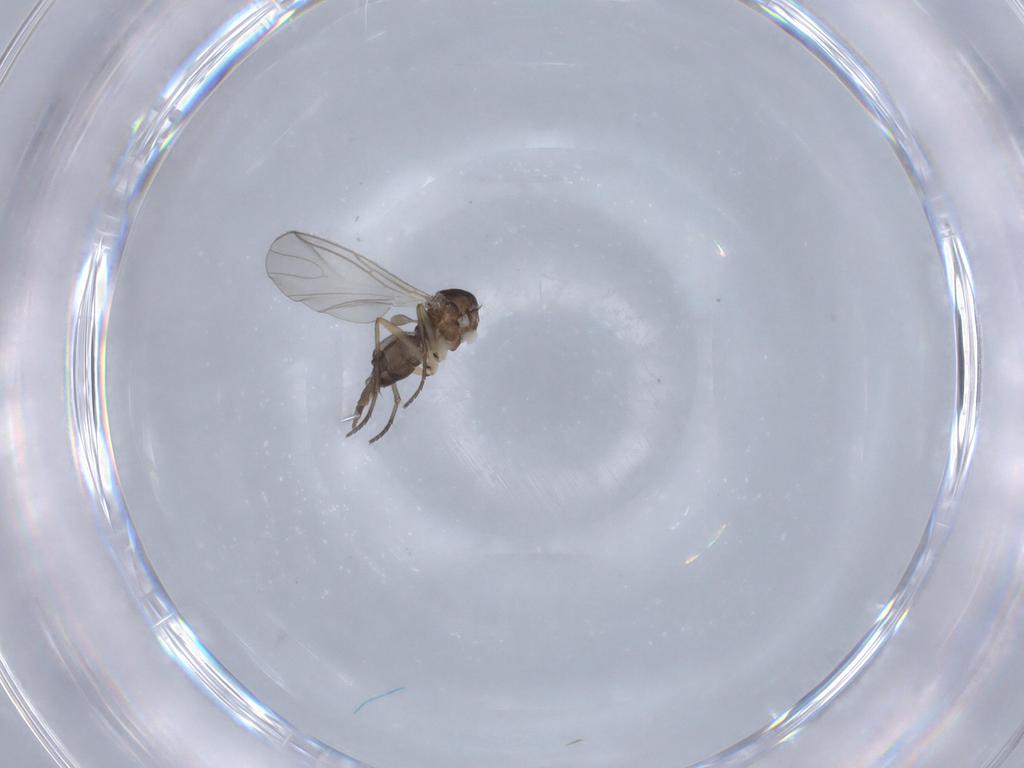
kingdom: Animalia
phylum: Arthropoda
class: Insecta
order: Diptera
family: Sciaridae
